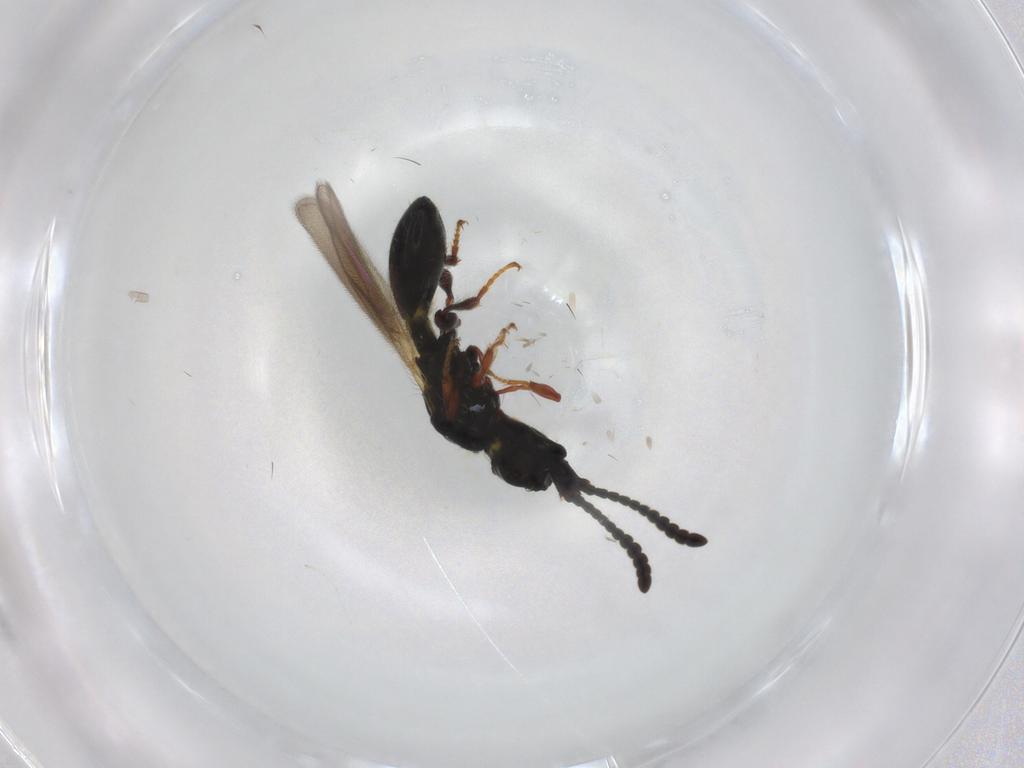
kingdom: Animalia
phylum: Arthropoda
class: Insecta
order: Hymenoptera
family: Diapriidae
